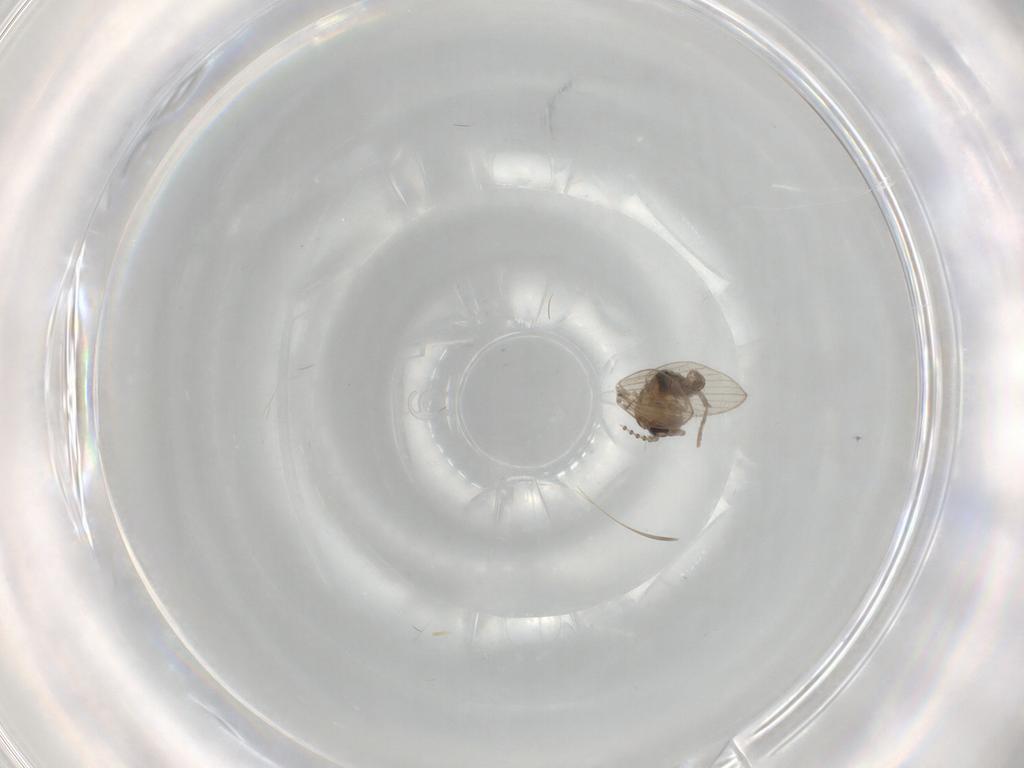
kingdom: Animalia
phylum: Arthropoda
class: Insecta
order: Diptera
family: Psychodidae
